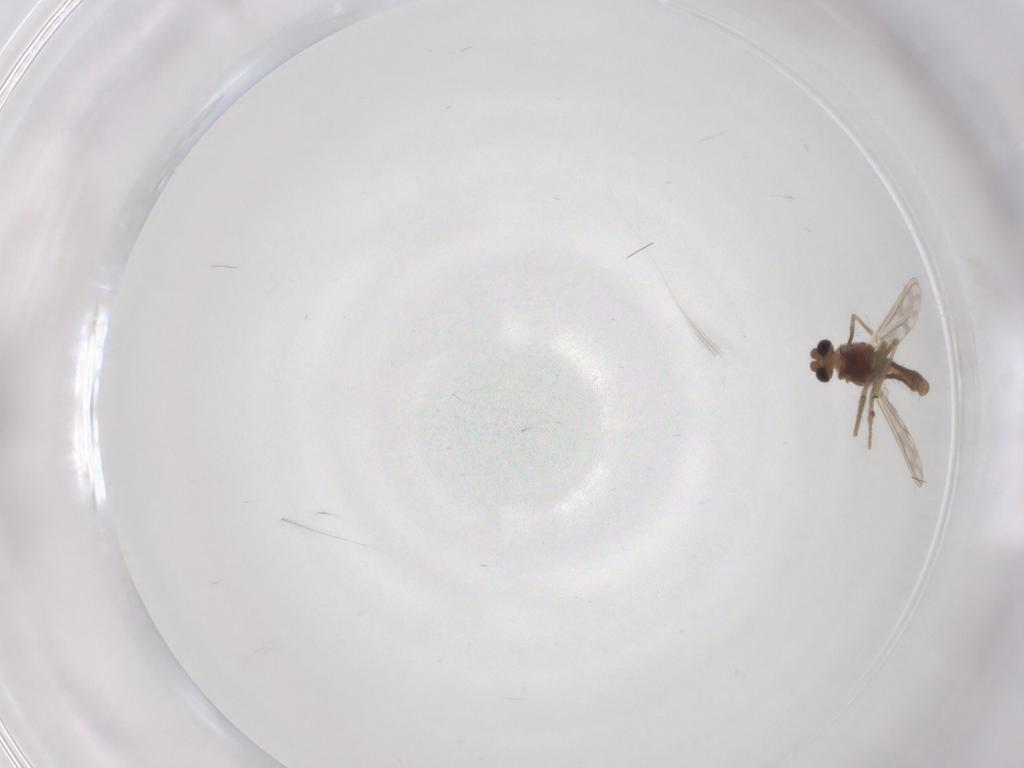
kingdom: Animalia
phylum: Arthropoda
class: Insecta
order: Diptera
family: Chironomidae
